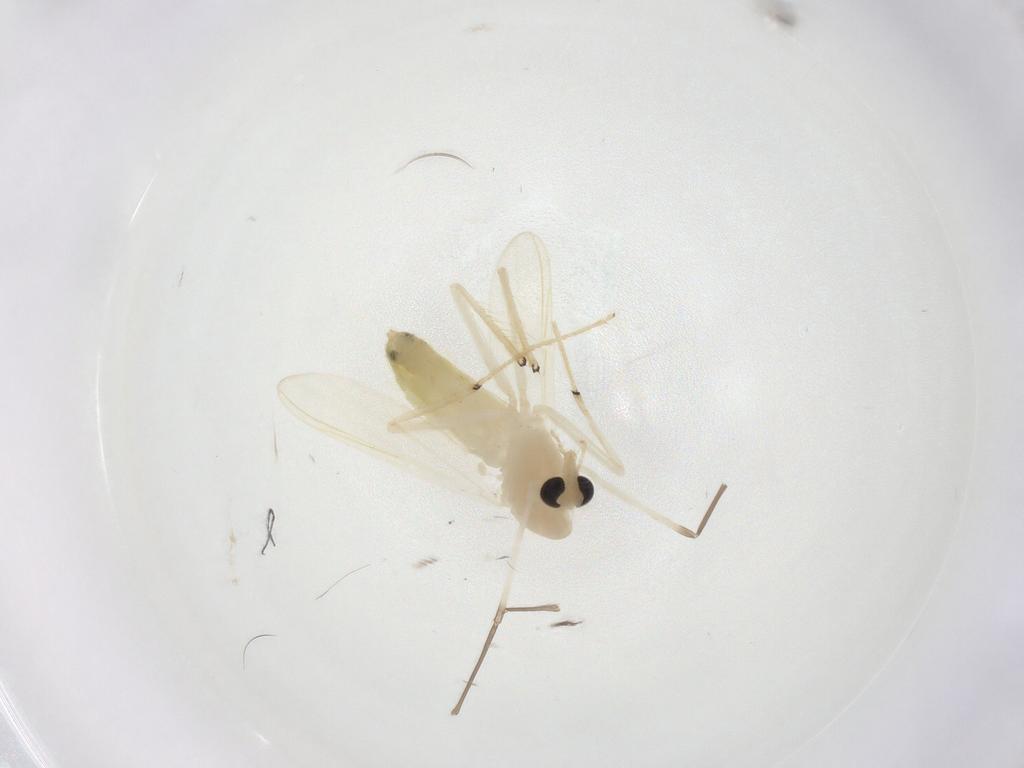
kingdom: Animalia
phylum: Arthropoda
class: Insecta
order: Diptera
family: Chironomidae
